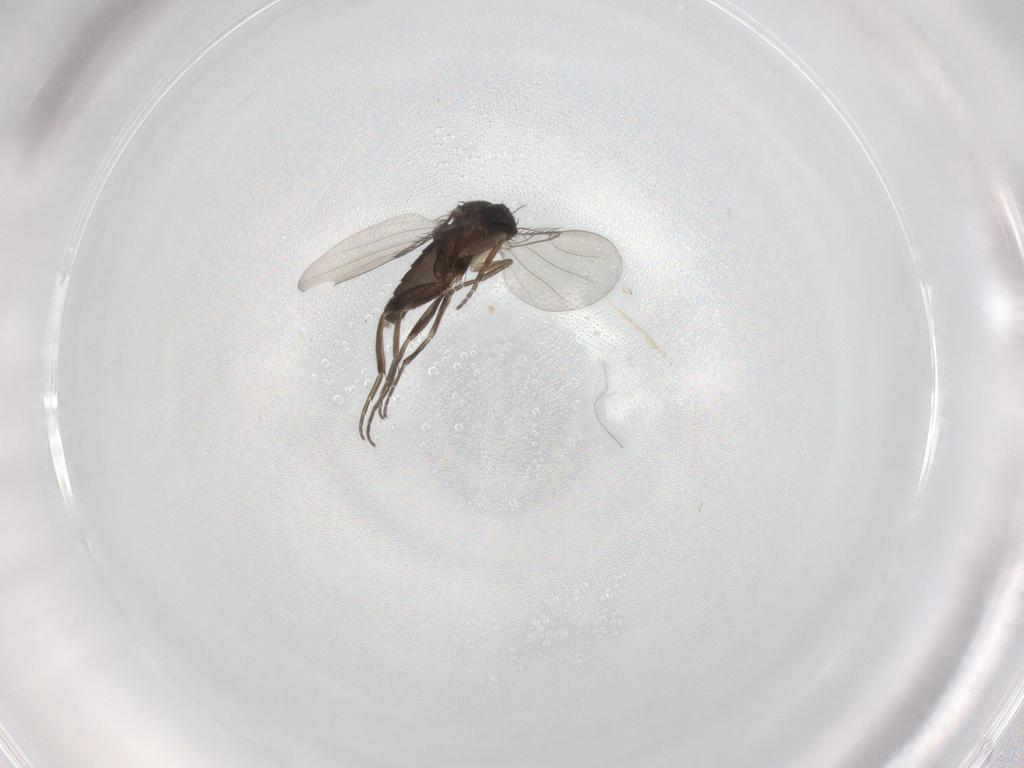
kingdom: Animalia
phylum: Arthropoda
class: Insecta
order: Diptera
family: Phoridae
